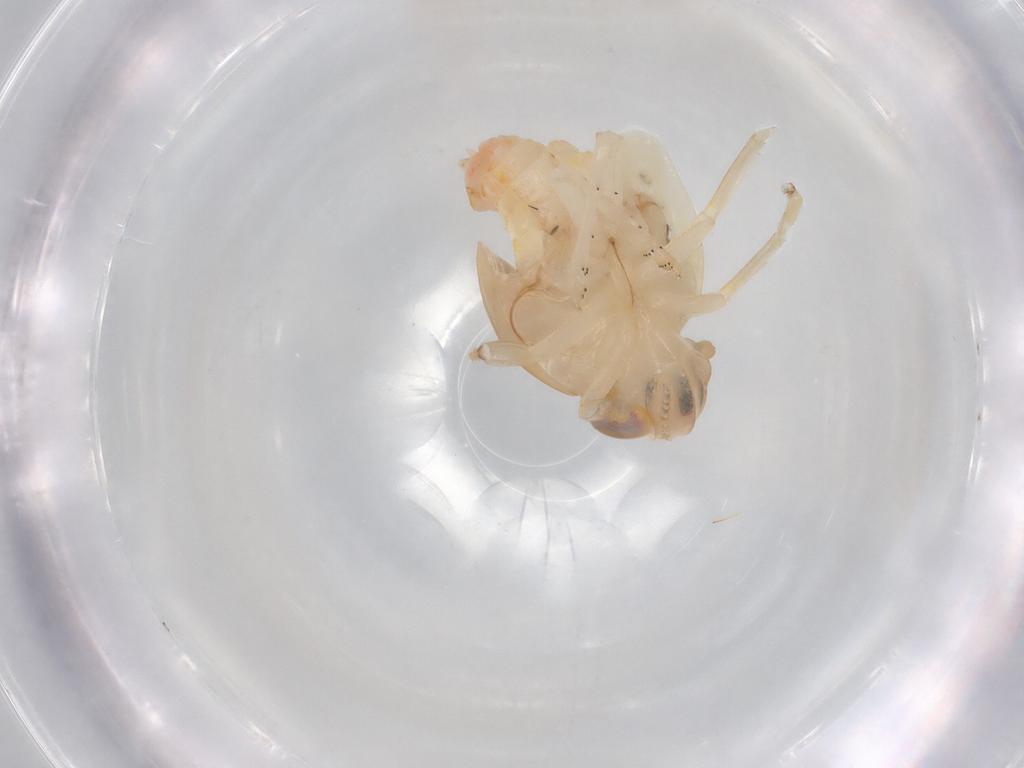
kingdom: Animalia
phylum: Arthropoda
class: Insecta
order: Hemiptera
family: Nogodinidae
